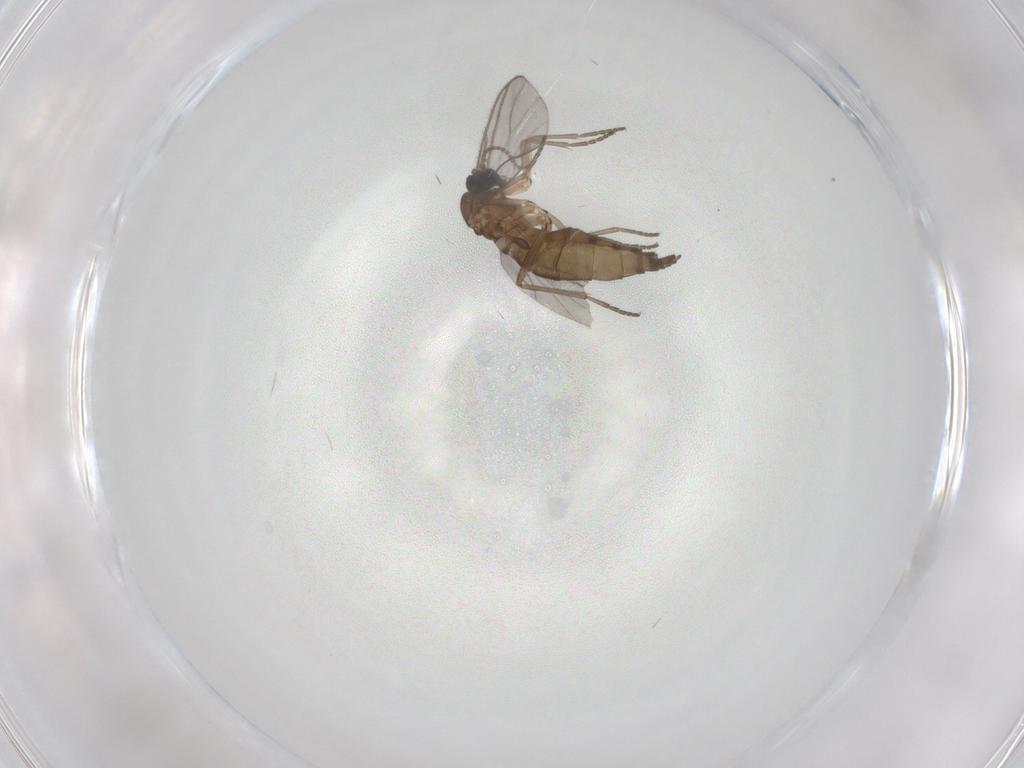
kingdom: Animalia
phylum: Arthropoda
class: Insecta
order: Diptera
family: Sciaridae
